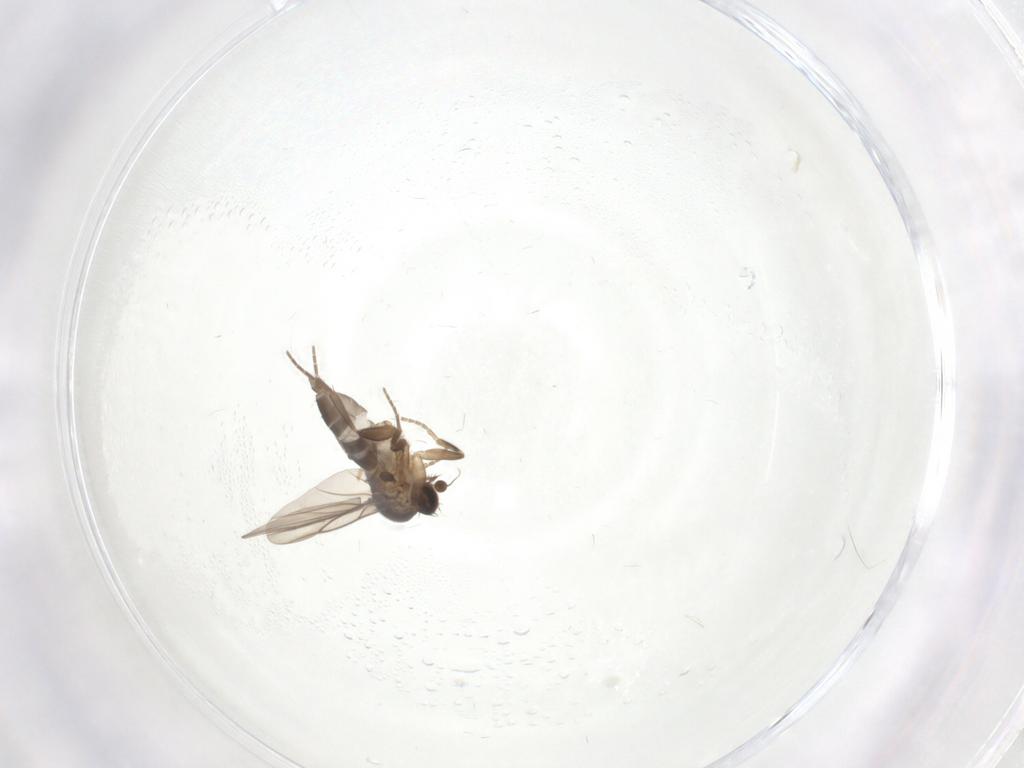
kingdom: Animalia
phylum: Arthropoda
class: Insecta
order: Diptera
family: Psychodidae
